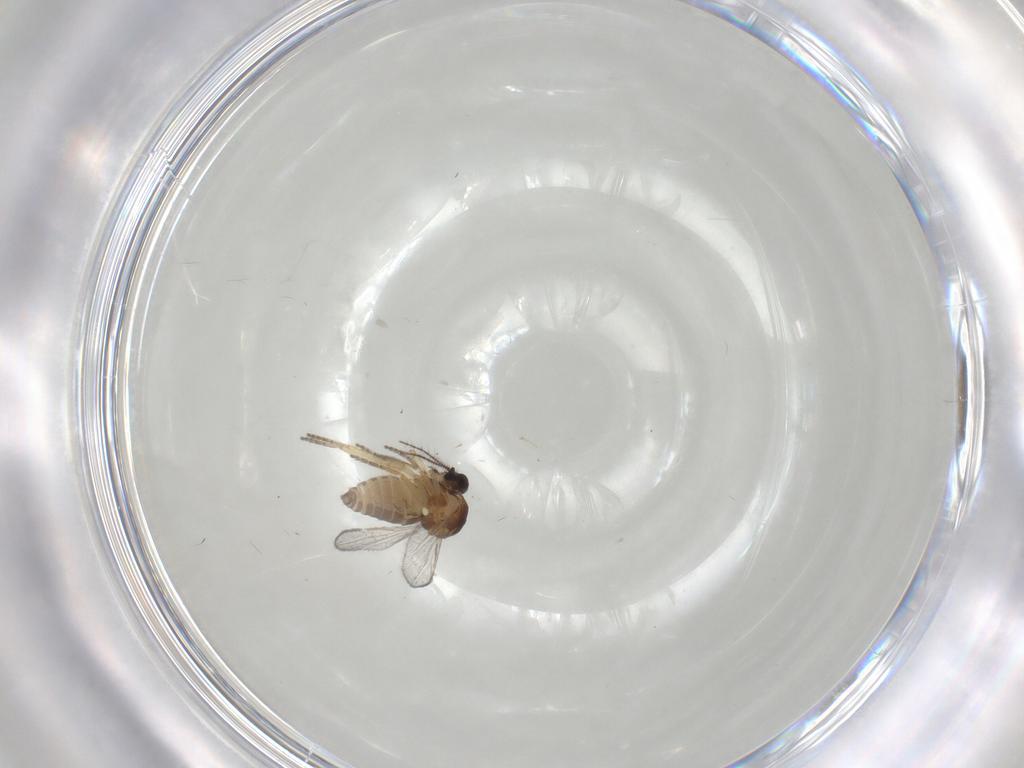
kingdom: Animalia
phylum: Arthropoda
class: Insecta
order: Diptera
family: Ceratopogonidae
